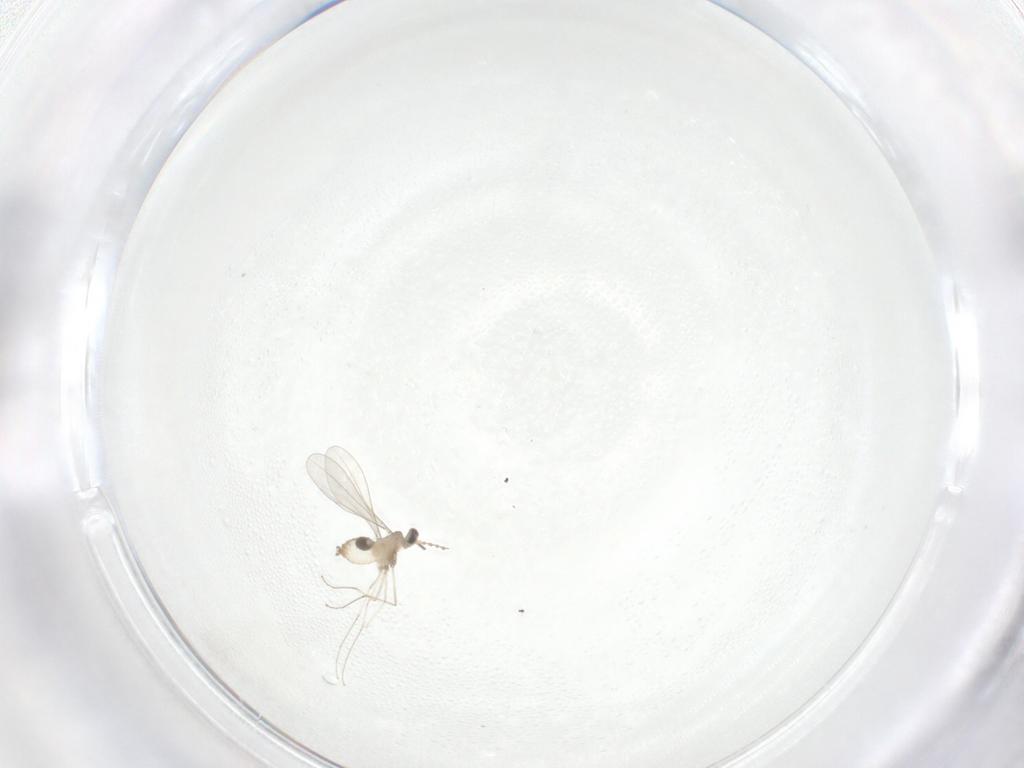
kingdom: Animalia
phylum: Arthropoda
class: Insecta
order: Diptera
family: Cecidomyiidae
